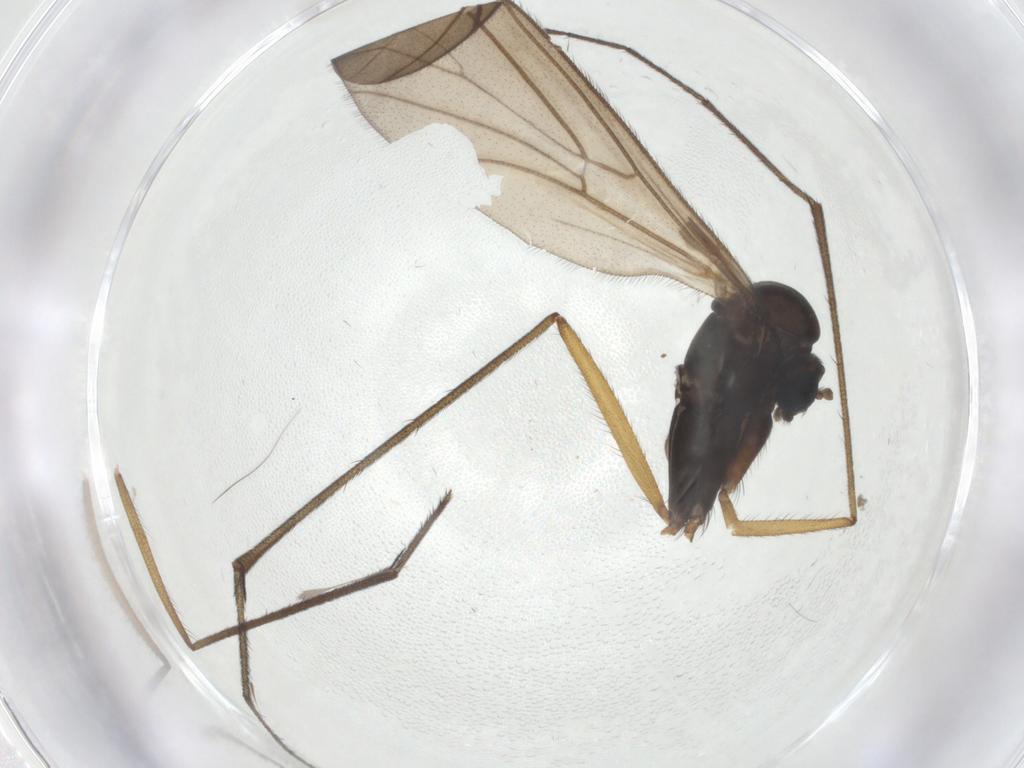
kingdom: Animalia
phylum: Arthropoda
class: Insecta
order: Diptera
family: Ditomyiidae
